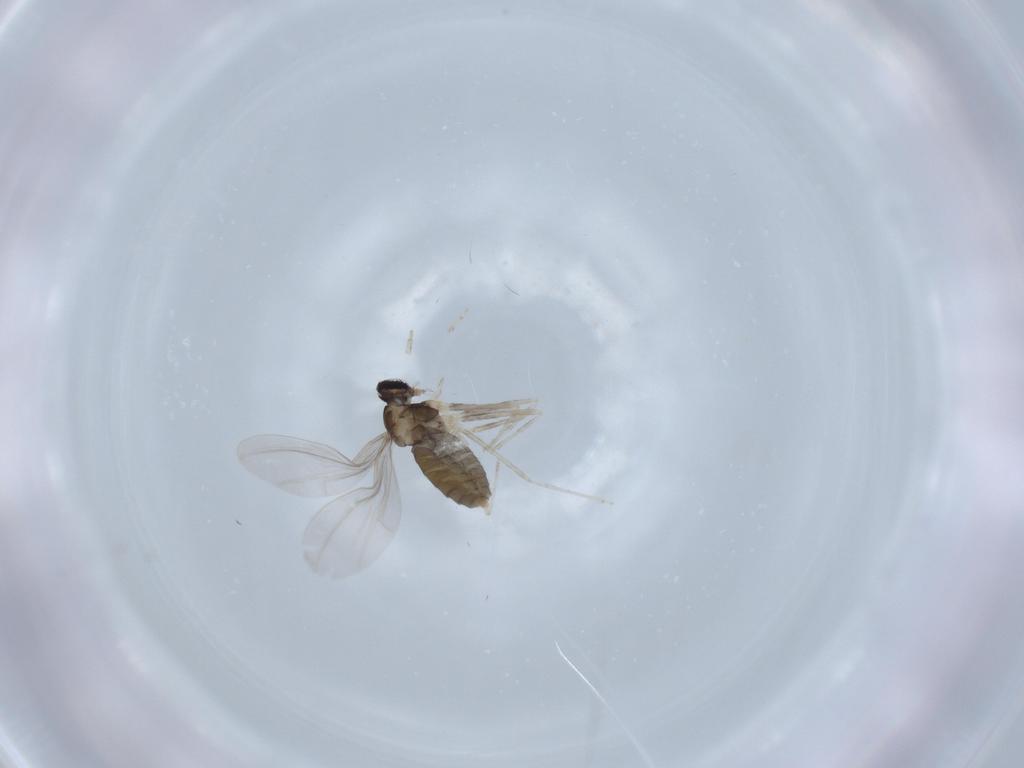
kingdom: Animalia
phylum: Arthropoda
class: Insecta
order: Diptera
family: Cecidomyiidae
